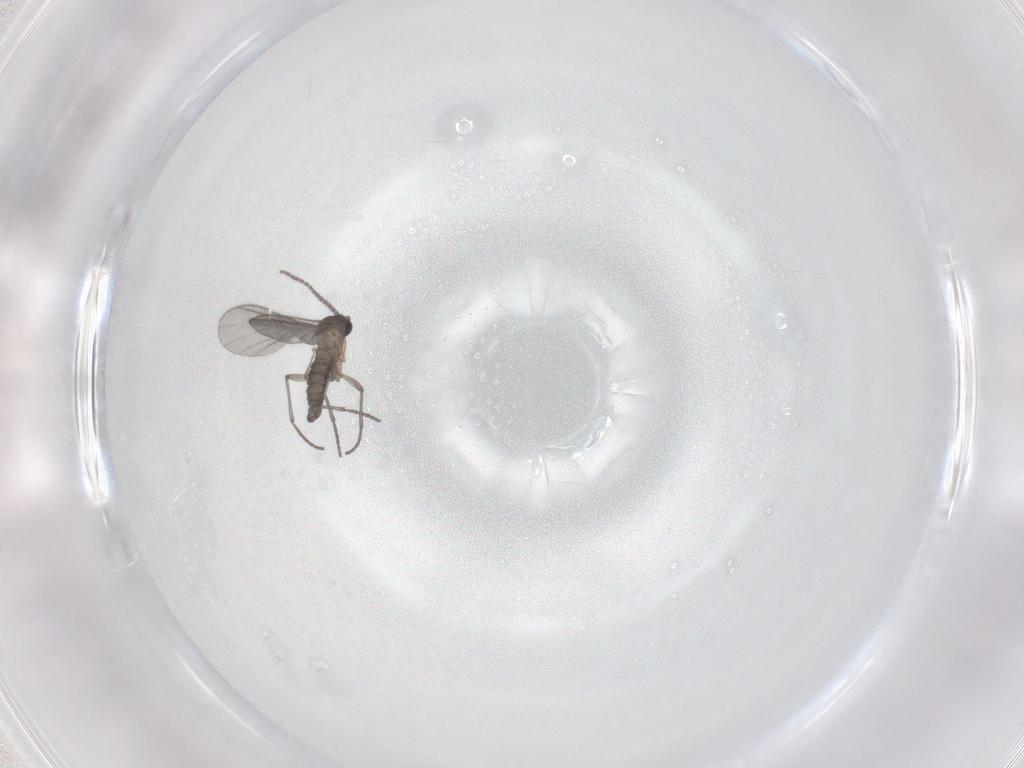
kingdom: Animalia
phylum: Arthropoda
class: Insecta
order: Diptera
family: Sciaridae
